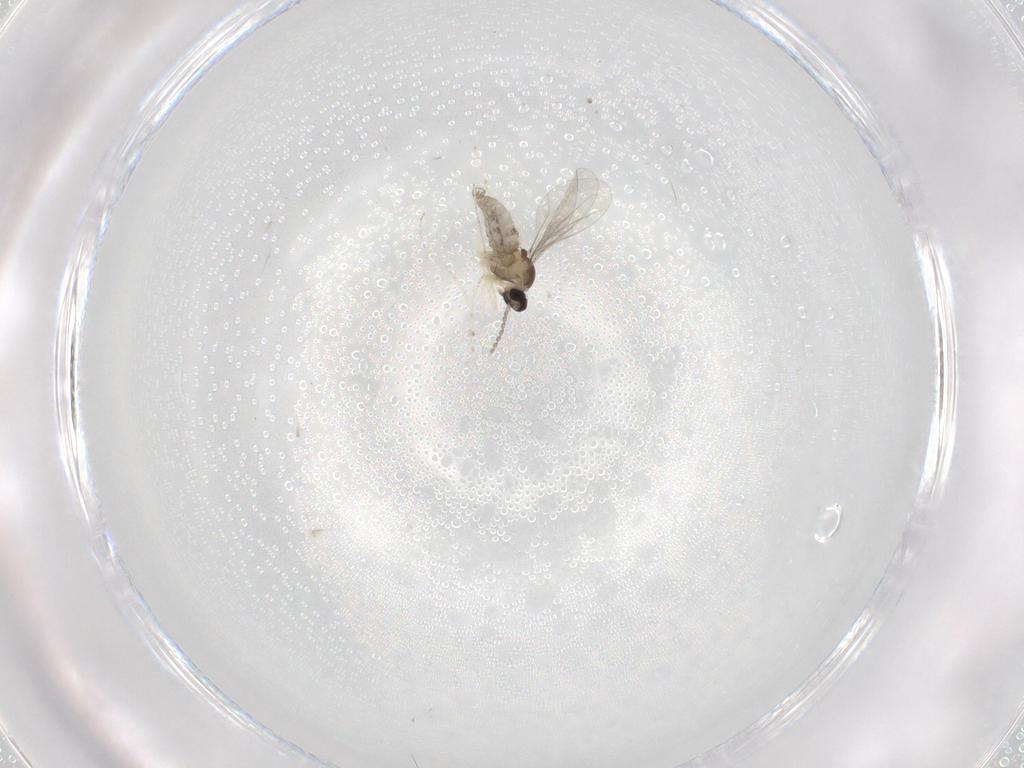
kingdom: Animalia
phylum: Arthropoda
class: Insecta
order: Diptera
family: Cecidomyiidae
